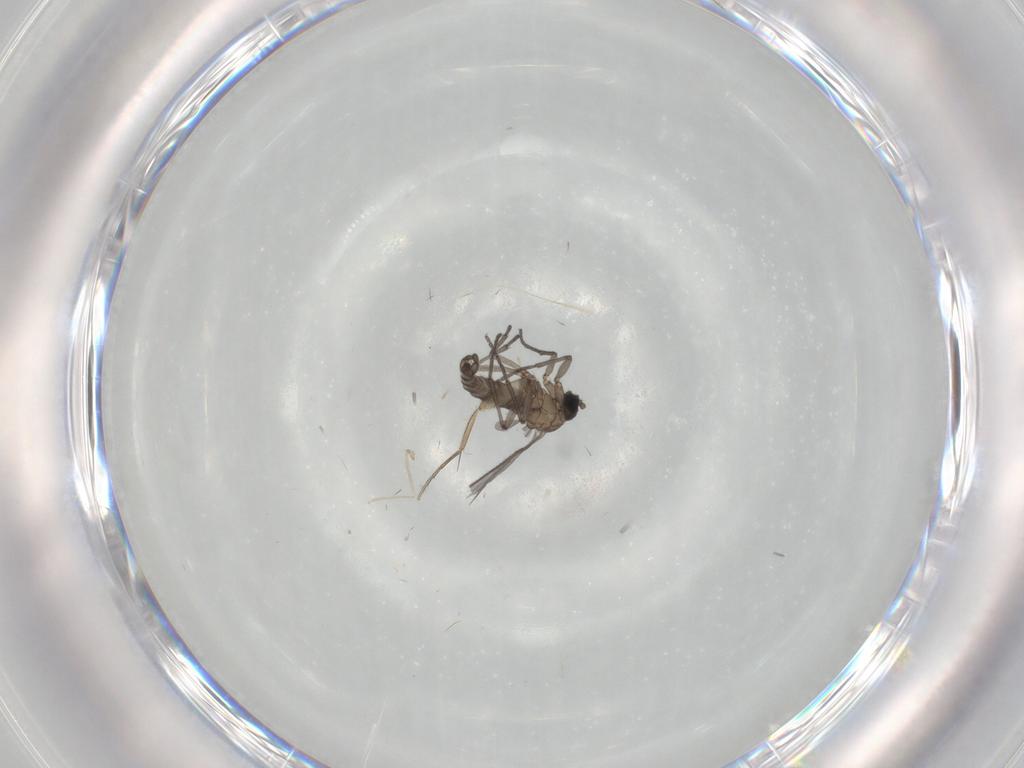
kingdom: Animalia
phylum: Arthropoda
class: Insecta
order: Diptera
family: Sciaridae
